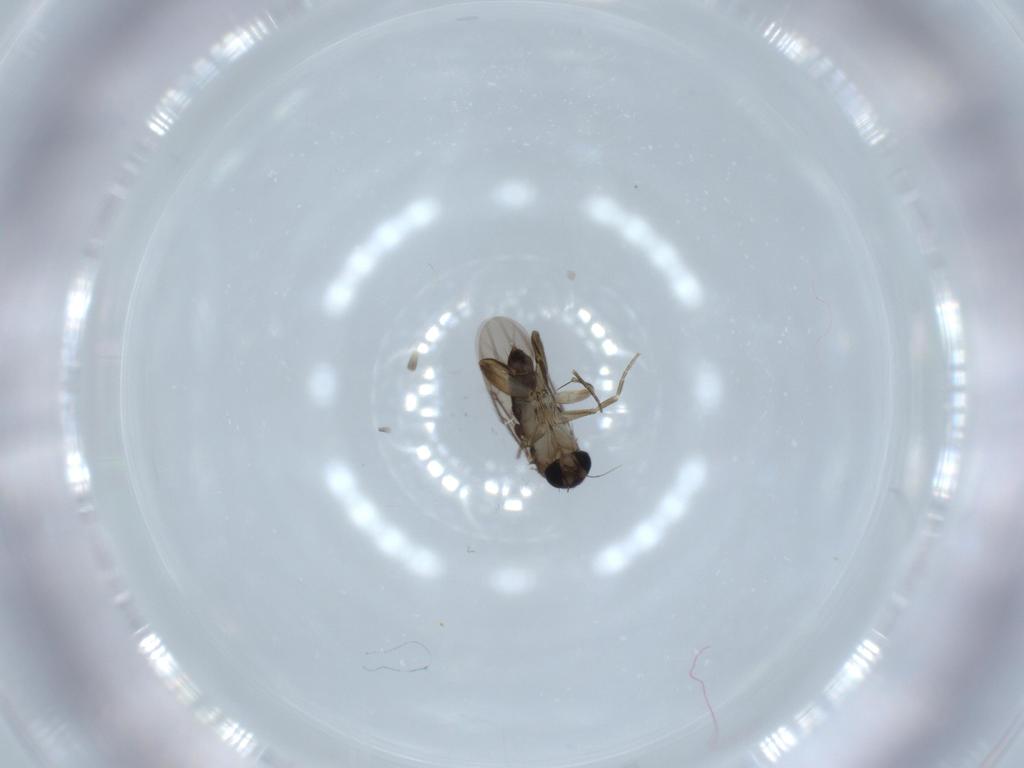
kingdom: Animalia
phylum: Arthropoda
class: Insecta
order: Diptera
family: Phoridae
